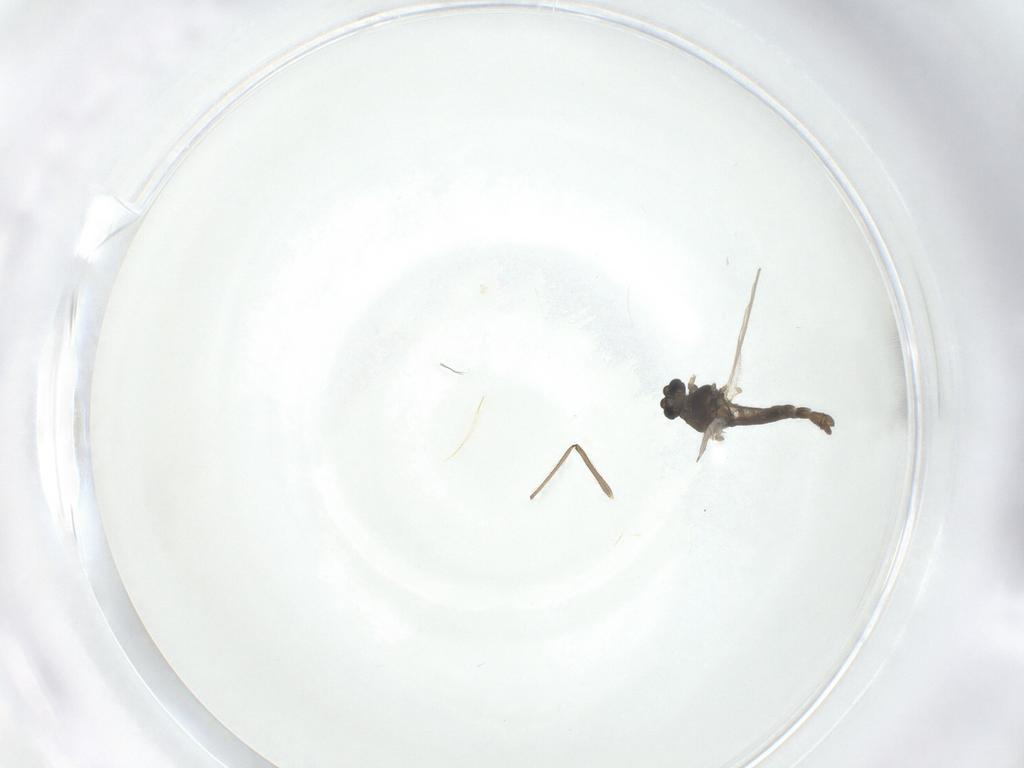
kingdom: Animalia
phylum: Arthropoda
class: Insecta
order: Diptera
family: Chironomidae
